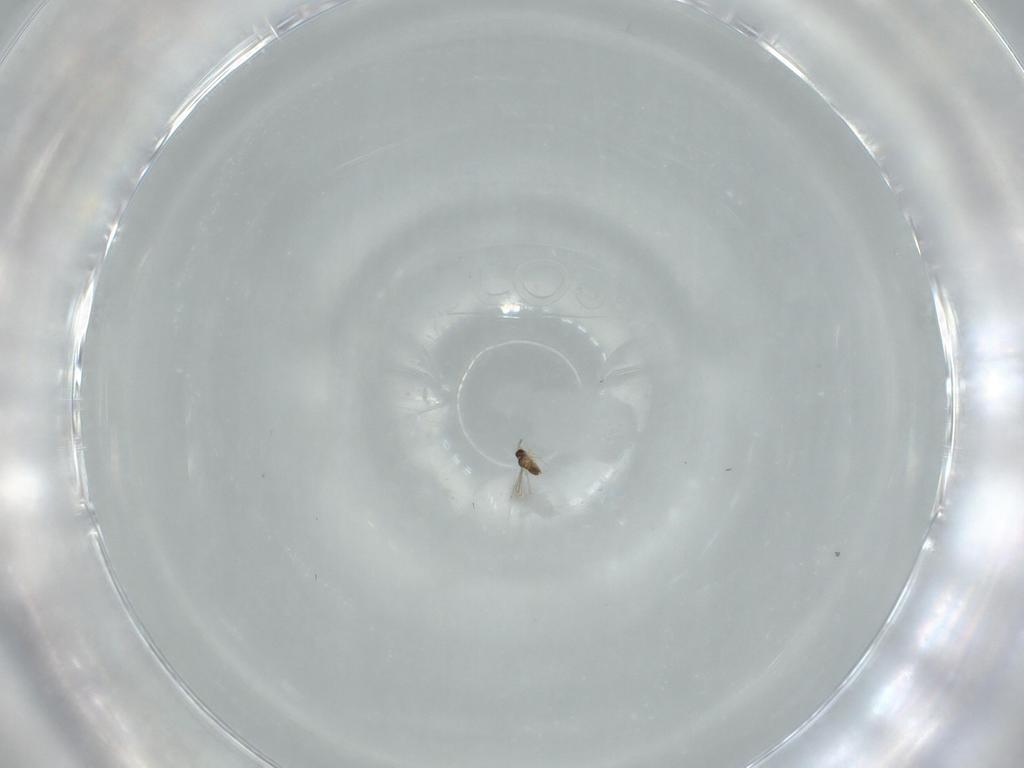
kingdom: Animalia
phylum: Arthropoda
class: Insecta
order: Hymenoptera
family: Mymaridae
